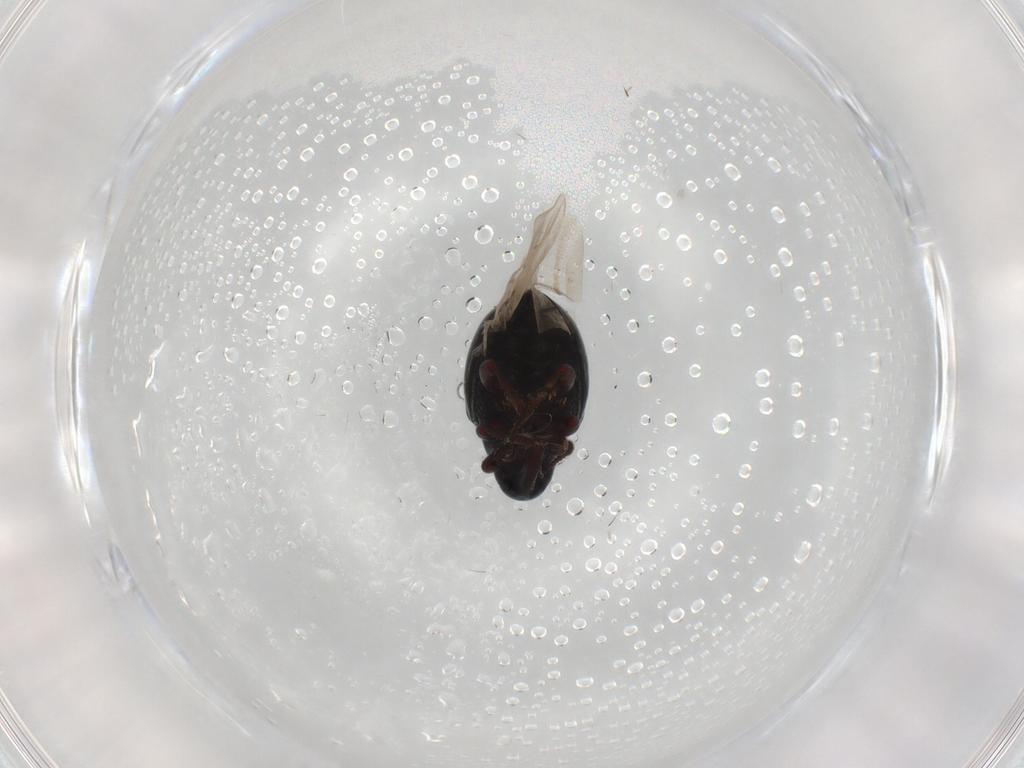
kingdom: Animalia
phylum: Arthropoda
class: Insecta
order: Coleoptera
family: Curculionidae
